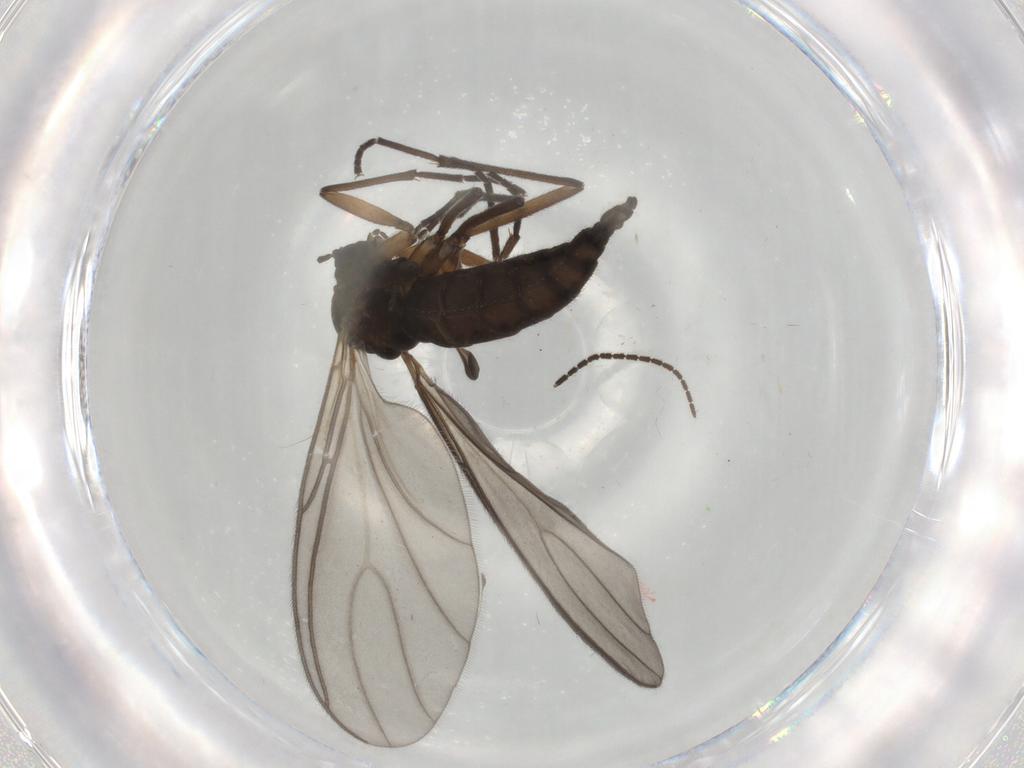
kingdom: Animalia
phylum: Arthropoda
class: Insecta
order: Diptera
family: Sciaridae
